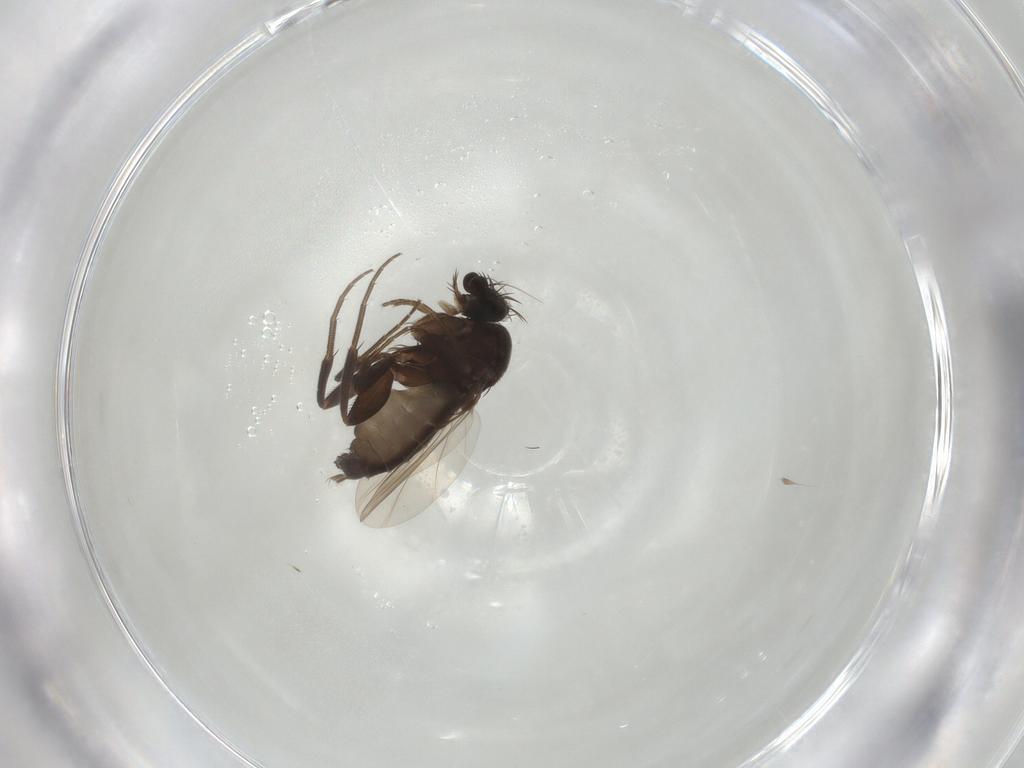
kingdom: Animalia
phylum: Arthropoda
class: Insecta
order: Diptera
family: Phoridae
